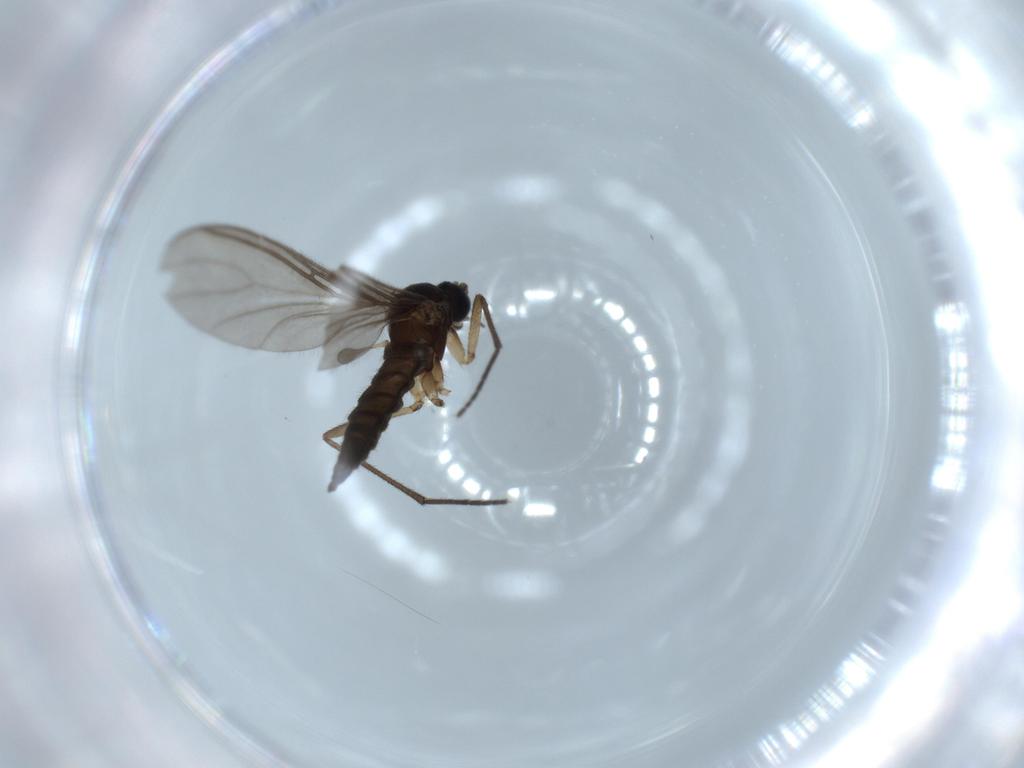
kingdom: Animalia
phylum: Arthropoda
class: Insecta
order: Diptera
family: Sciaridae
